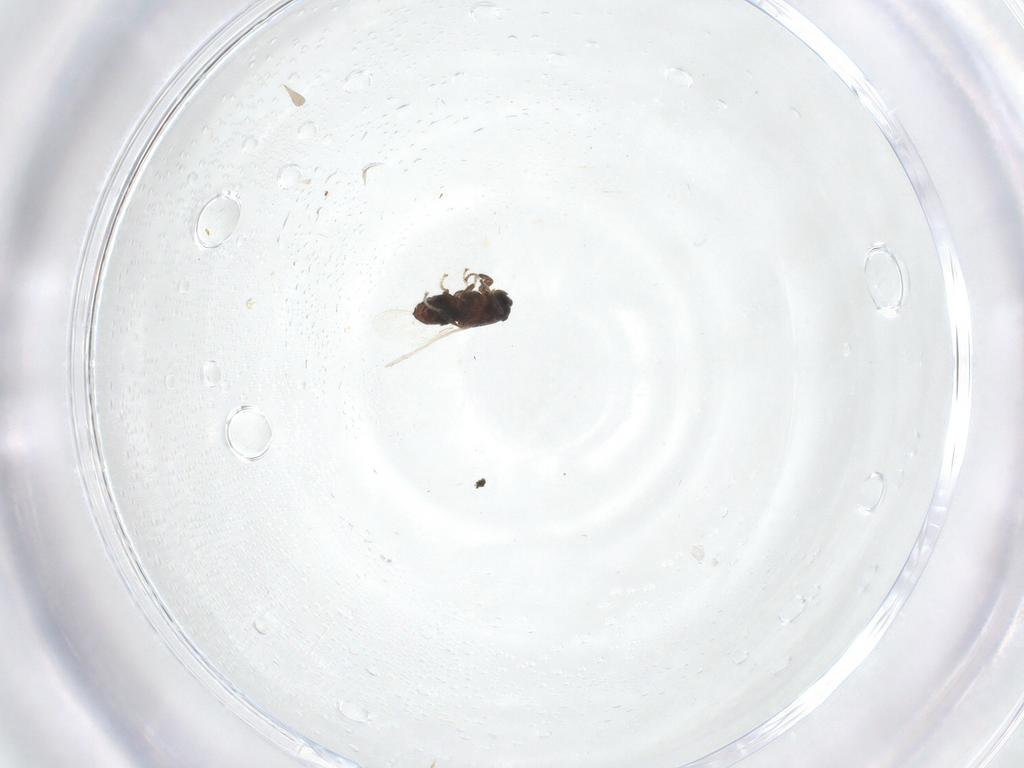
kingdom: Animalia
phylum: Arthropoda
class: Insecta
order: Diptera
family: Scatopsidae
